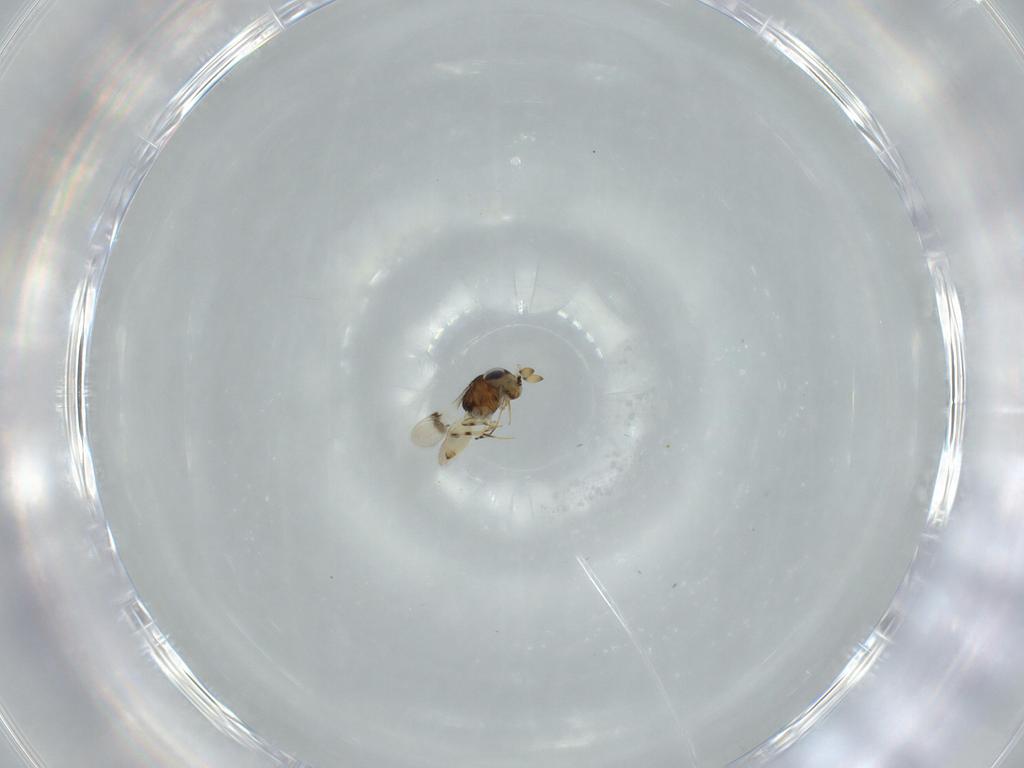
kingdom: Animalia
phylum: Arthropoda
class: Insecta
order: Hymenoptera
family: Scelionidae
